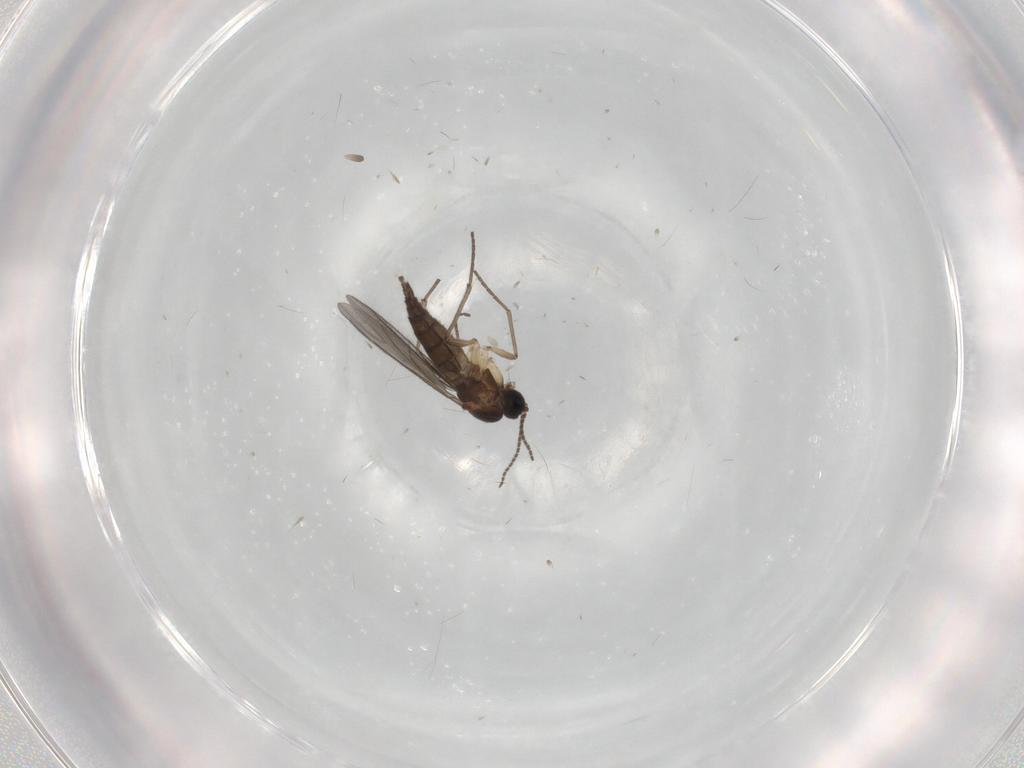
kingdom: Animalia
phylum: Arthropoda
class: Insecta
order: Diptera
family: Sciaridae
